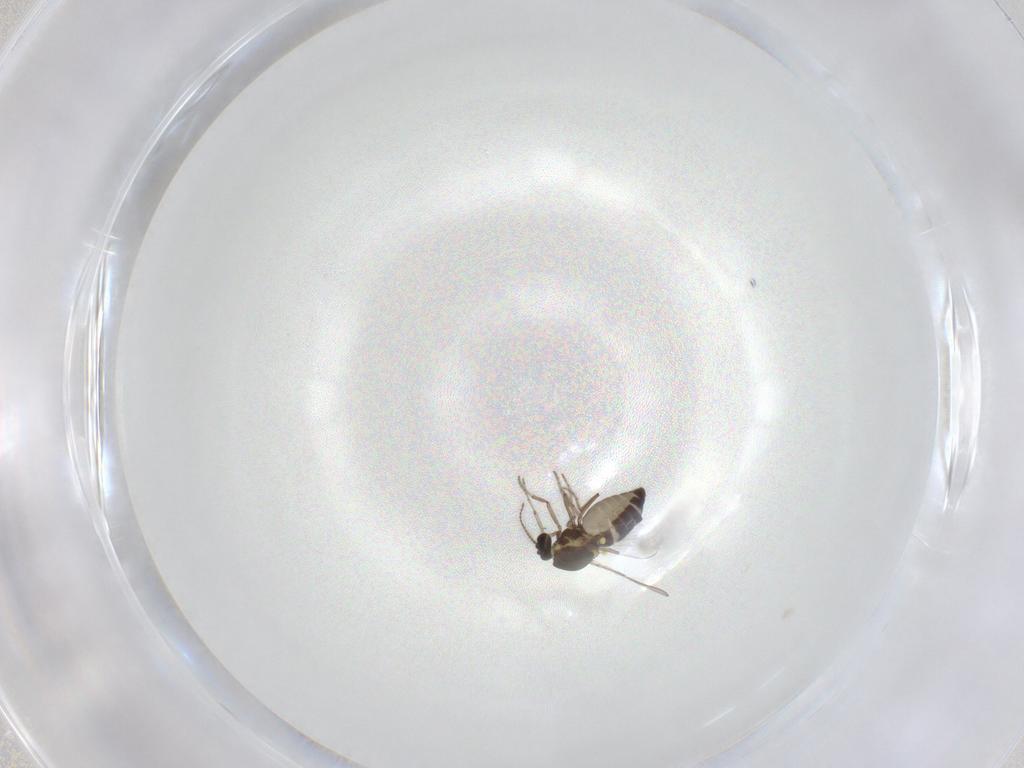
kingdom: Animalia
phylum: Arthropoda
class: Insecta
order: Diptera
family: Ceratopogonidae
